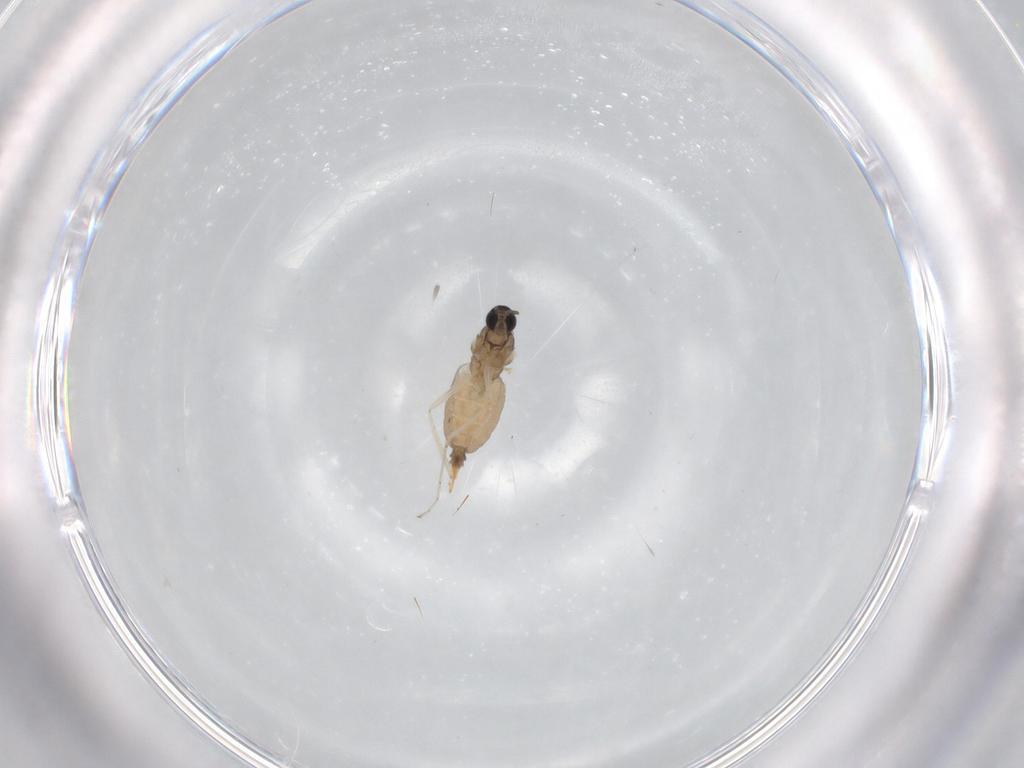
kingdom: Animalia
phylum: Arthropoda
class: Insecta
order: Diptera
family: Cecidomyiidae
